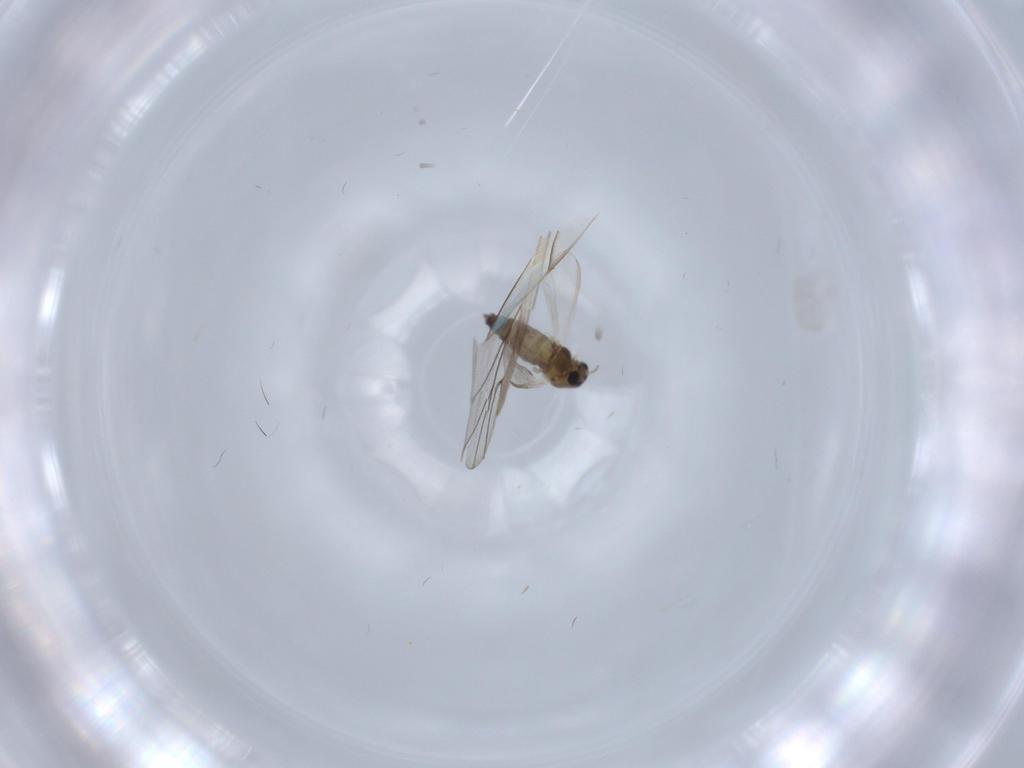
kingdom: Animalia
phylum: Arthropoda
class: Insecta
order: Diptera
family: Chironomidae
